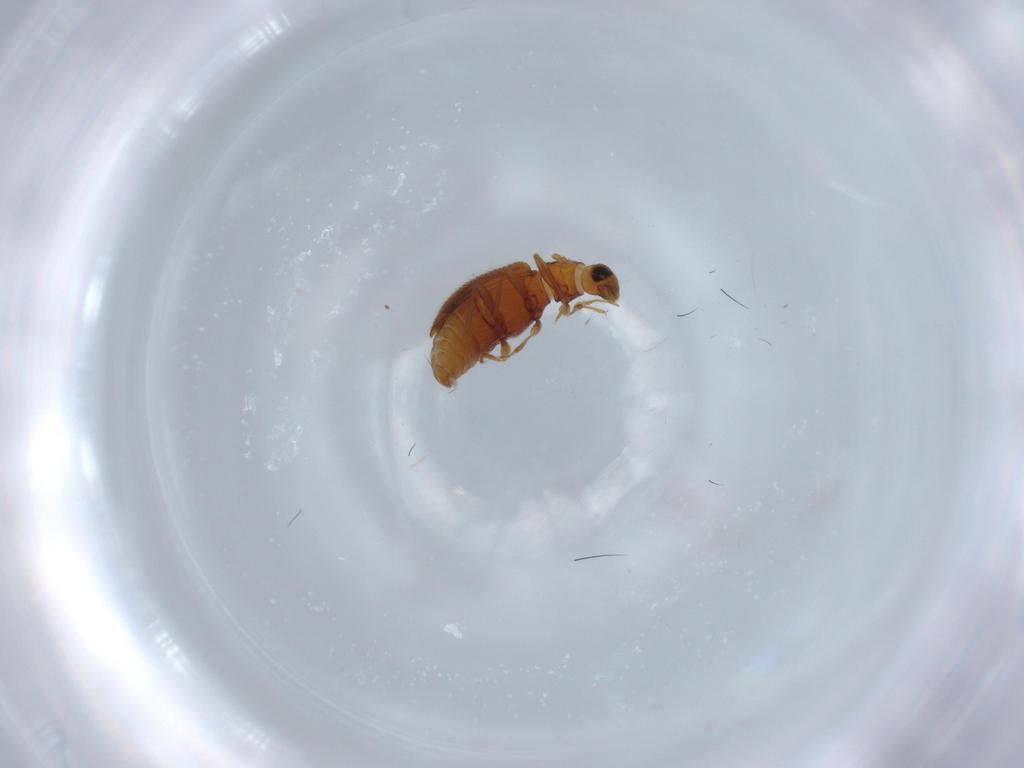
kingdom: Animalia
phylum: Arthropoda
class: Insecta
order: Coleoptera
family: Latridiidae
